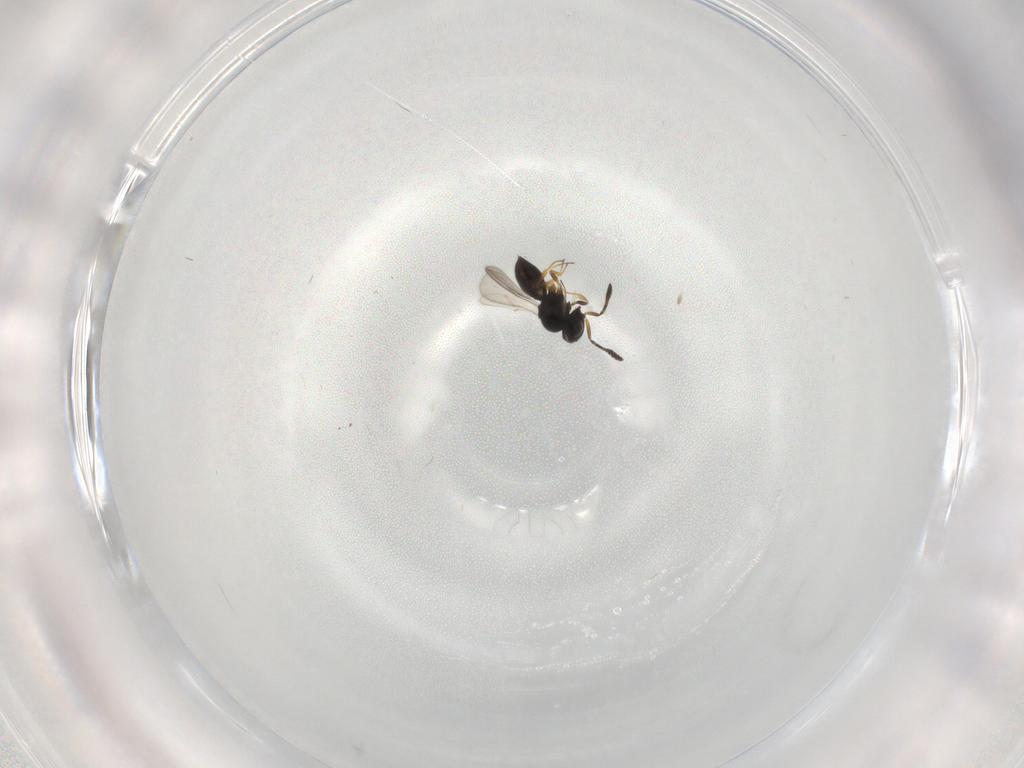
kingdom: Animalia
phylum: Arthropoda
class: Insecta
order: Hymenoptera
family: Scelionidae
